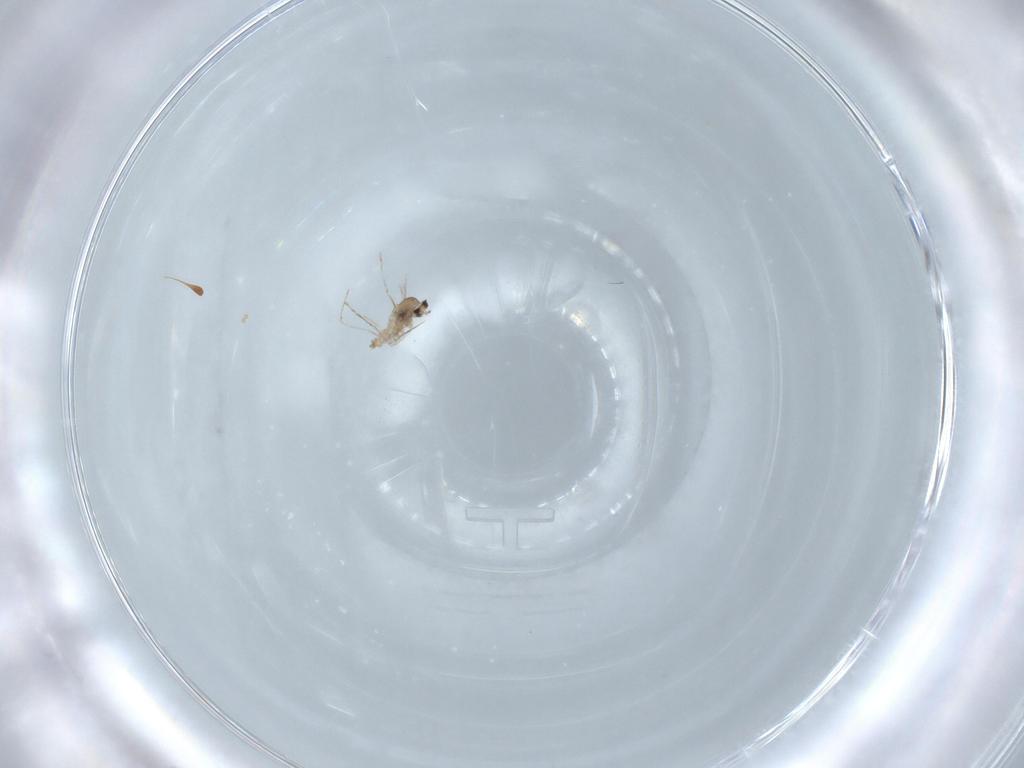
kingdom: Animalia
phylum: Arthropoda
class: Insecta
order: Diptera
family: Cecidomyiidae
